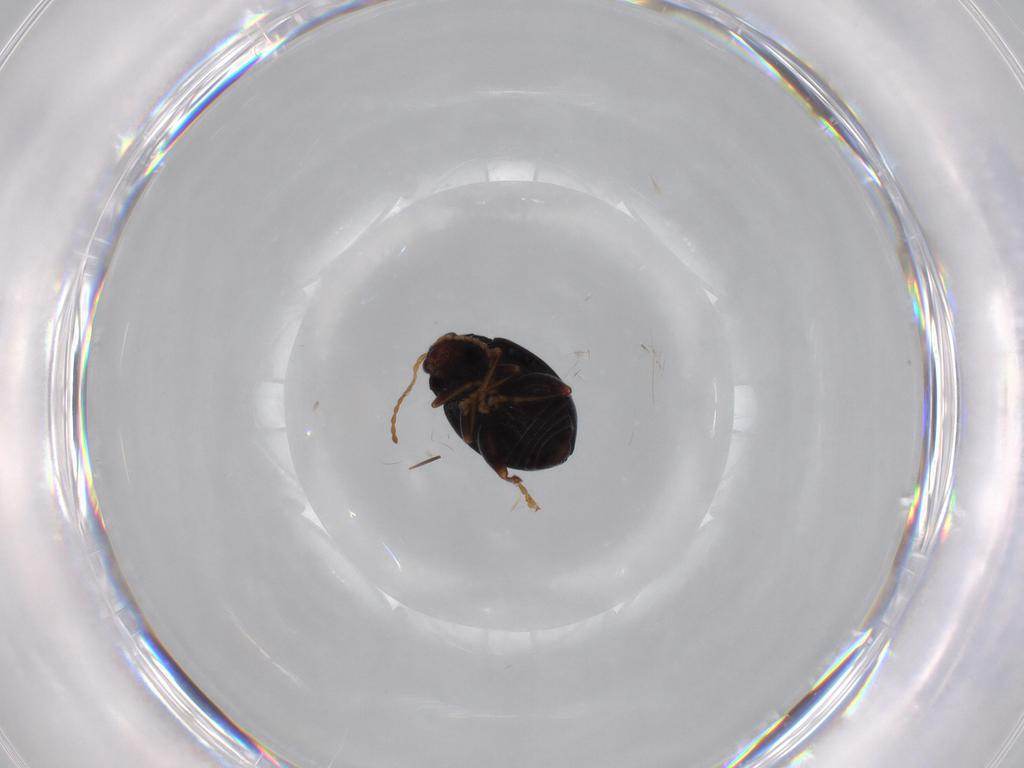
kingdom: Animalia
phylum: Arthropoda
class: Insecta
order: Coleoptera
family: Chrysomelidae
